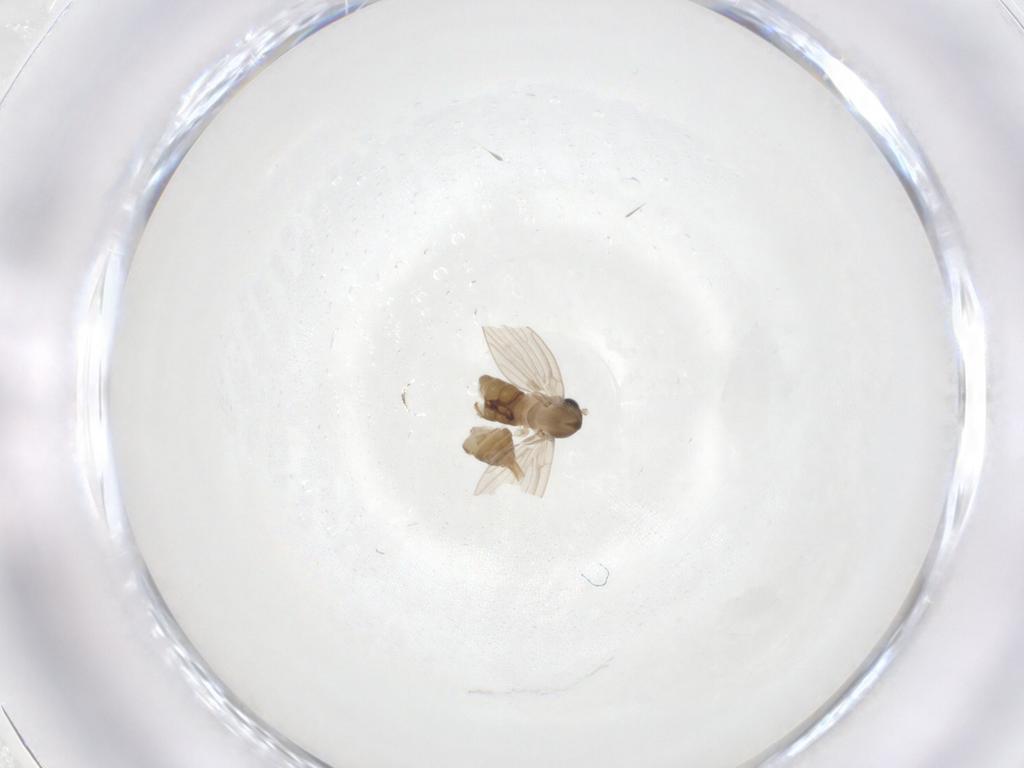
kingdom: Animalia
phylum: Arthropoda
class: Insecta
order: Diptera
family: Psychodidae
